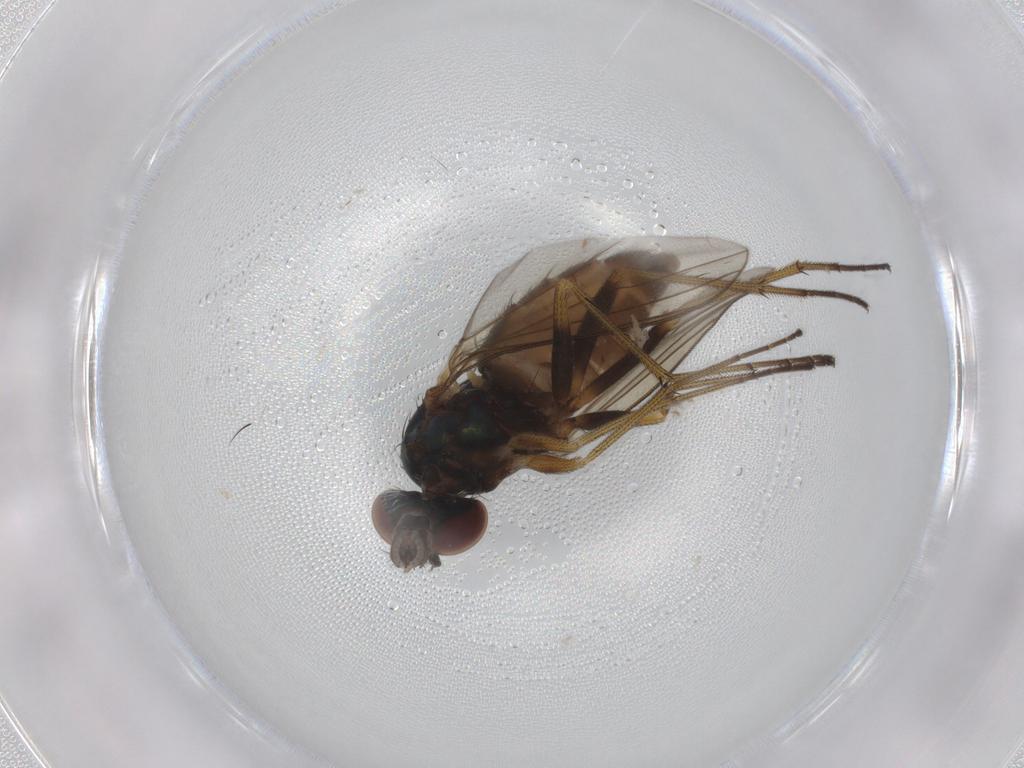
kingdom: Animalia
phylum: Arthropoda
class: Insecta
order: Diptera
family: Dolichopodidae
